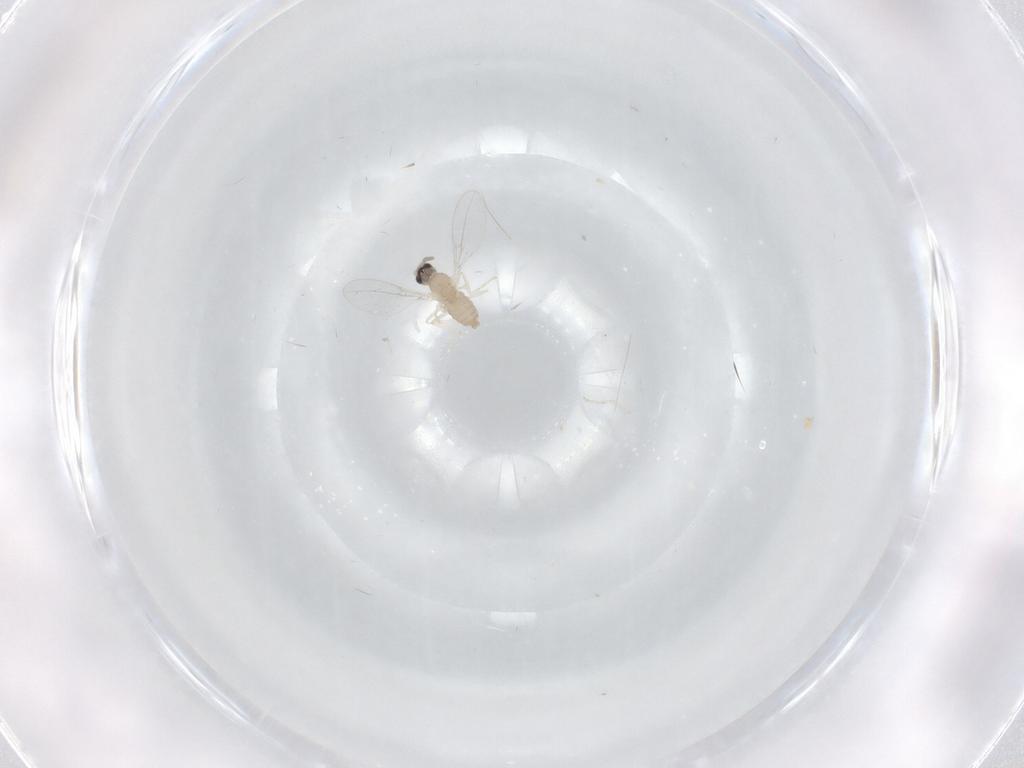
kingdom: Animalia
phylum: Arthropoda
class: Insecta
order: Diptera
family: Cecidomyiidae
